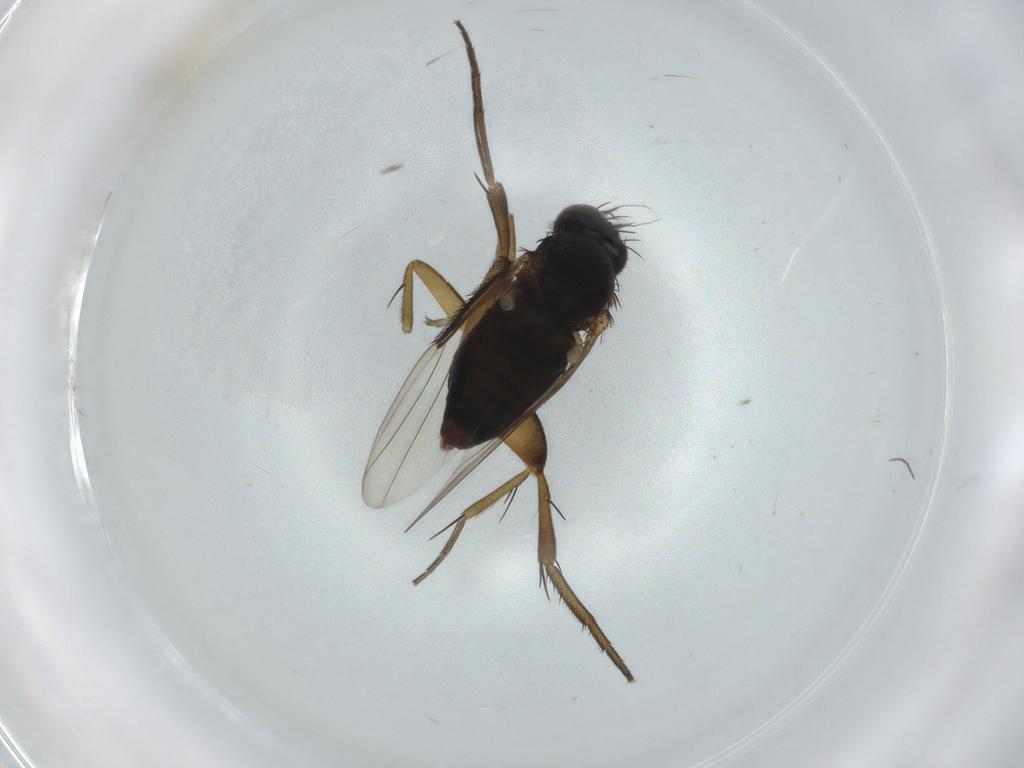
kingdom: Animalia
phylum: Arthropoda
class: Insecta
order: Diptera
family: Phoridae
